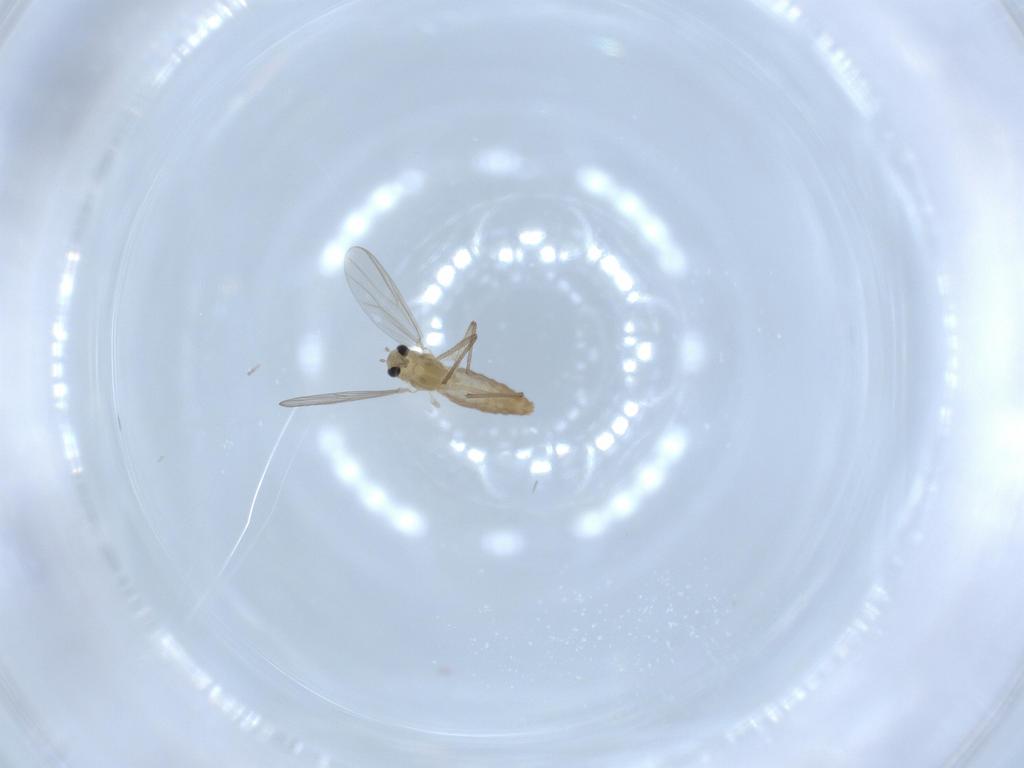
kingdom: Animalia
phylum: Arthropoda
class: Insecta
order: Diptera
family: Chironomidae
